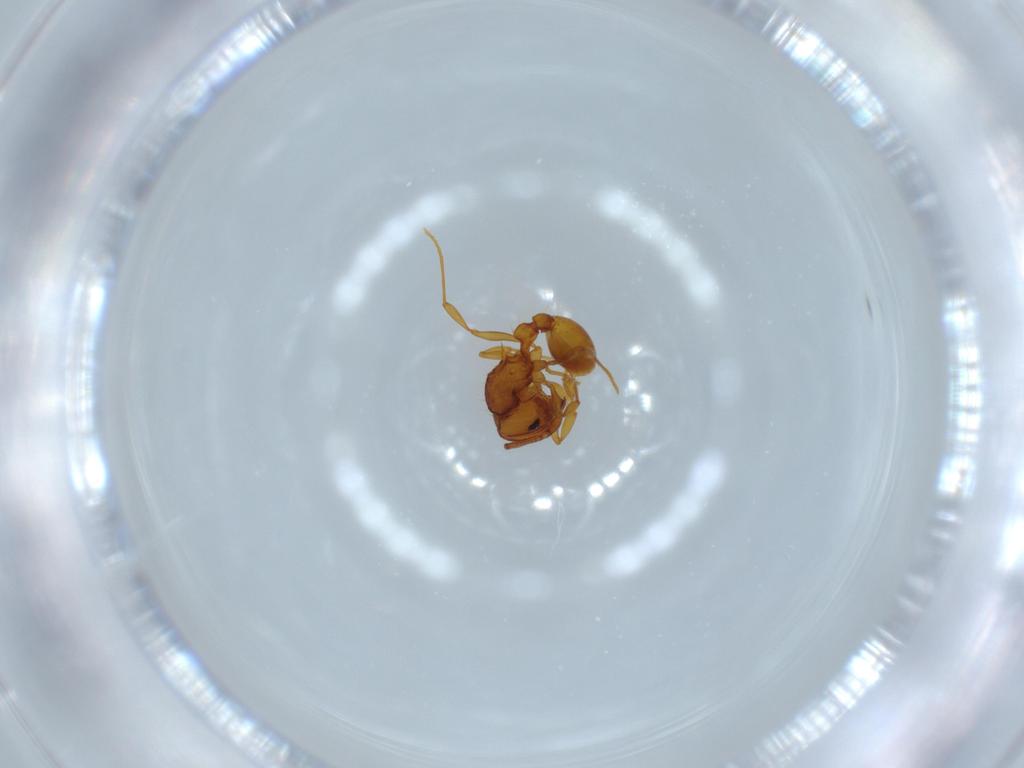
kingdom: Animalia
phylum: Arthropoda
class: Insecta
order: Hymenoptera
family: Formicidae
